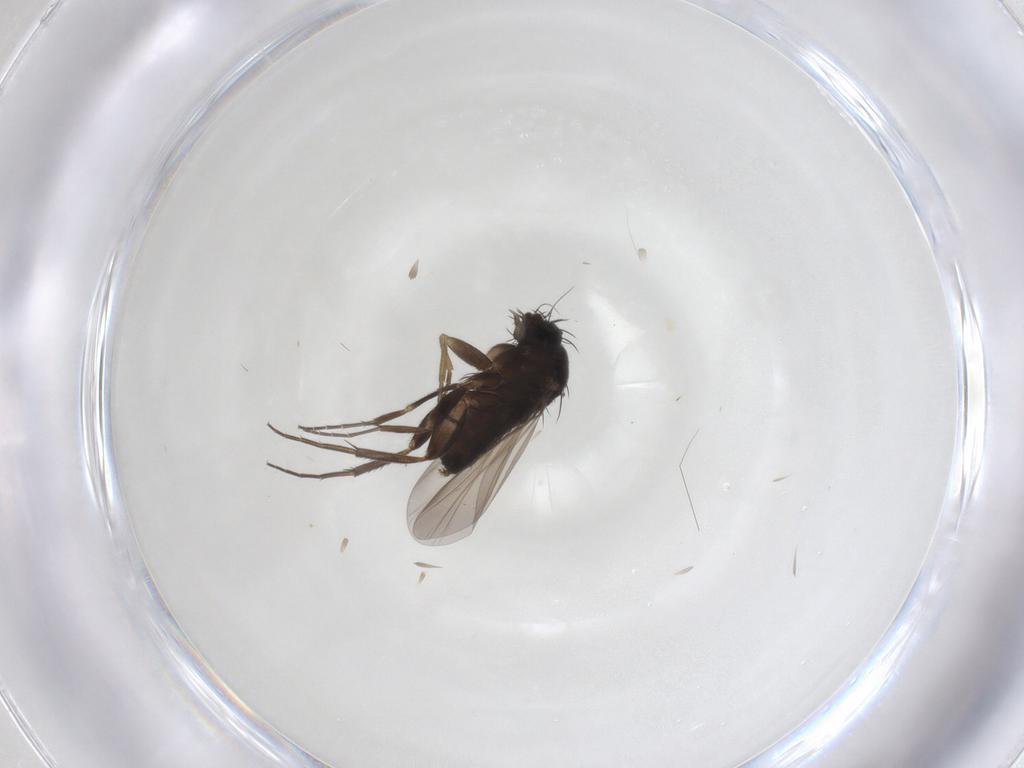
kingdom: Animalia
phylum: Arthropoda
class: Insecta
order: Diptera
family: Phoridae
